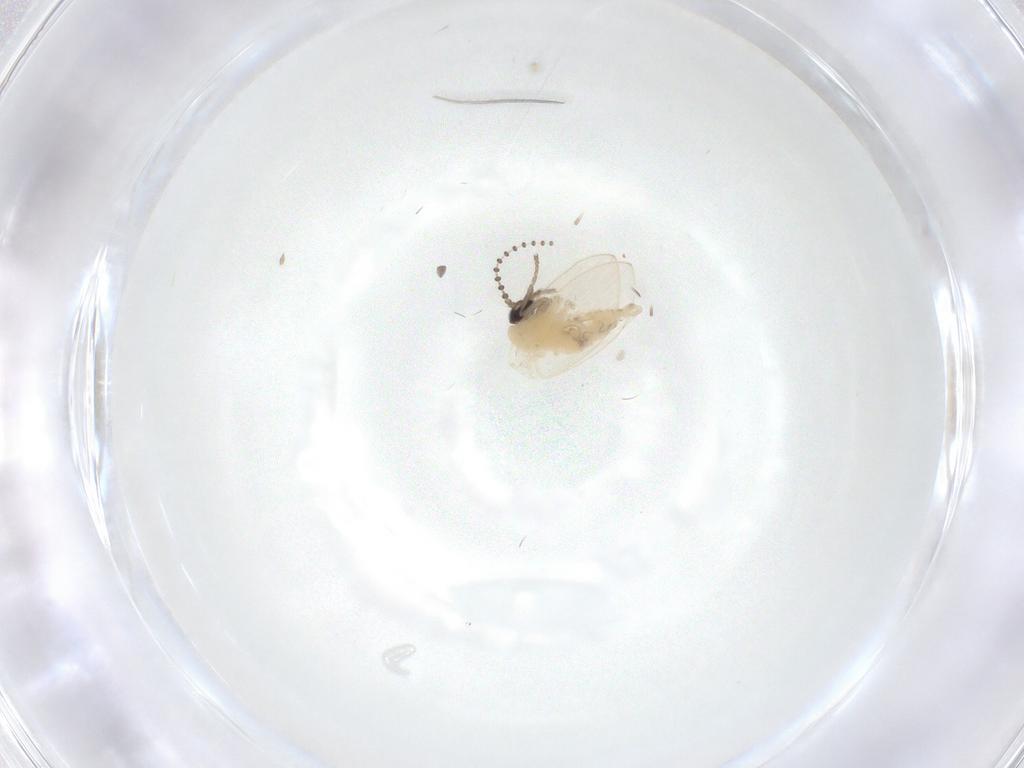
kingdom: Animalia
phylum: Arthropoda
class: Insecta
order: Diptera
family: Psychodidae
